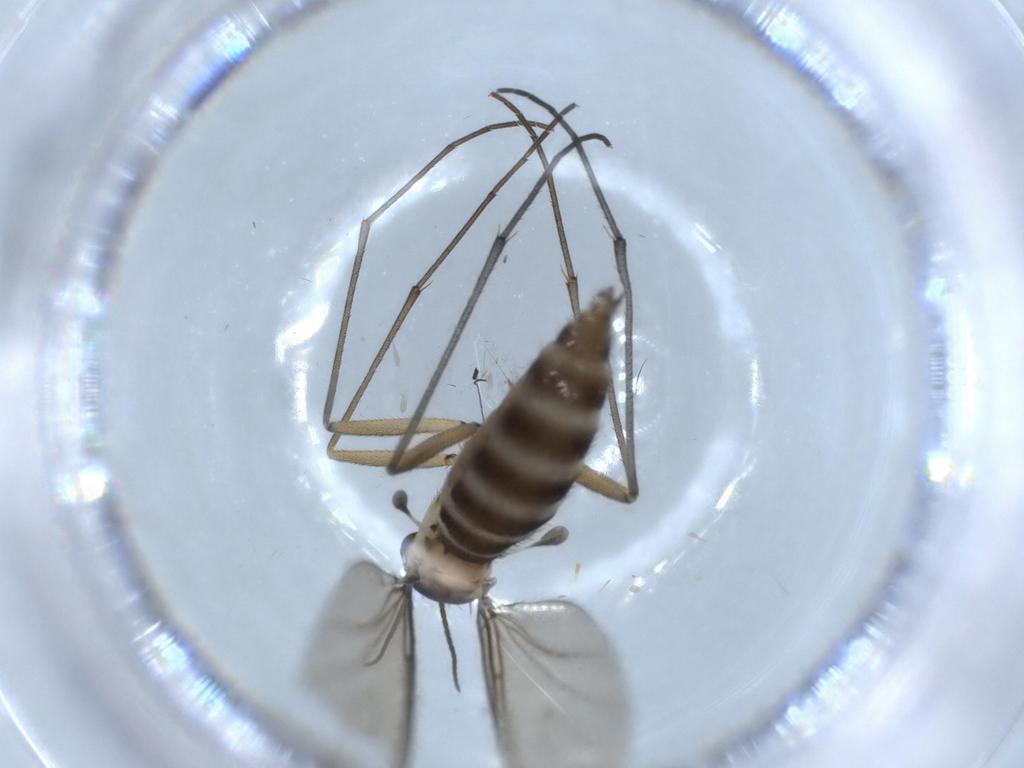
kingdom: Animalia
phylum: Arthropoda
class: Insecta
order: Diptera
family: Sciaridae
